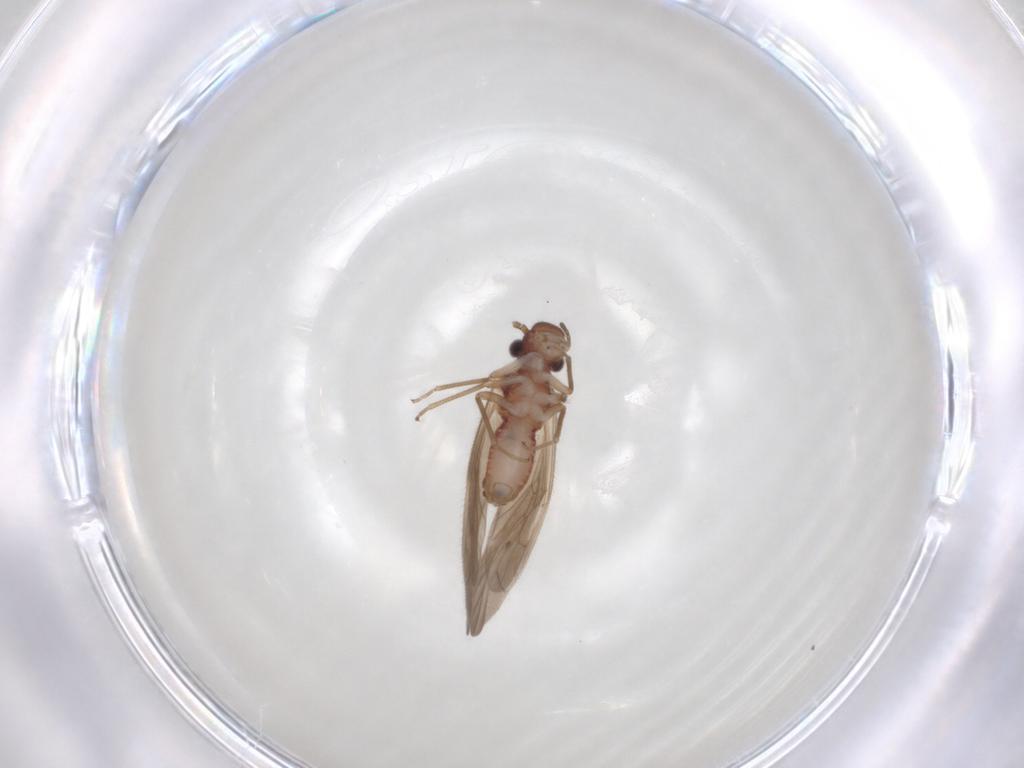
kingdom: Animalia
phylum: Arthropoda
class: Insecta
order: Psocodea
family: Caeciliusidae
